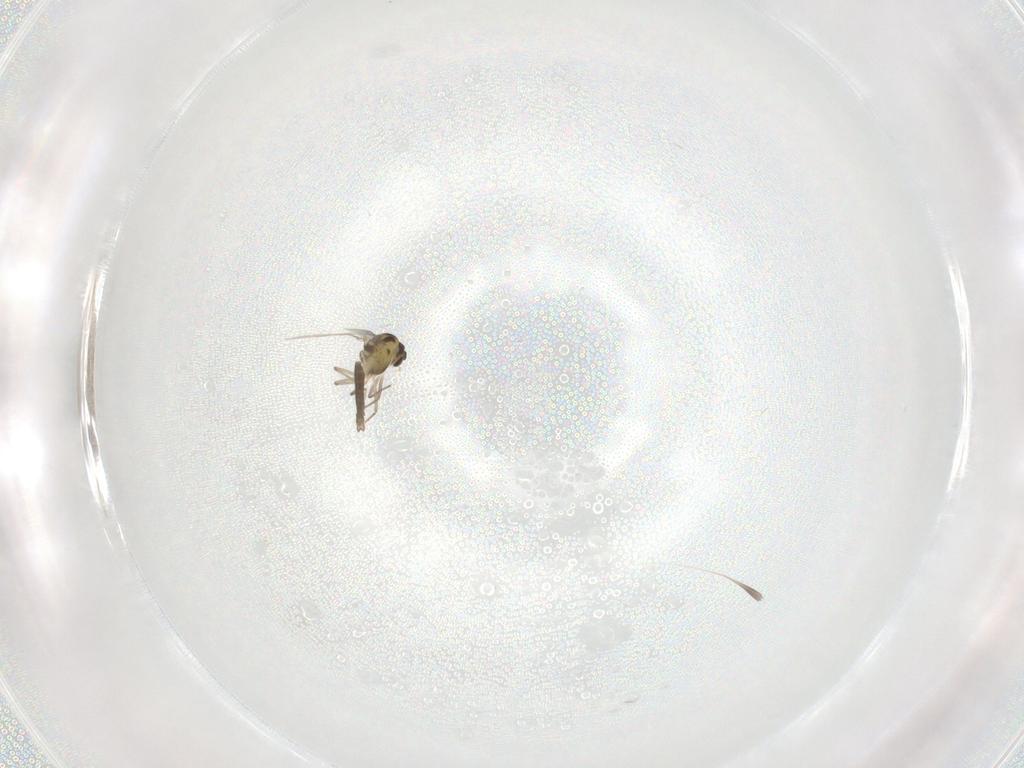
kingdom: Animalia
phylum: Arthropoda
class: Insecta
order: Diptera
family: Chironomidae
